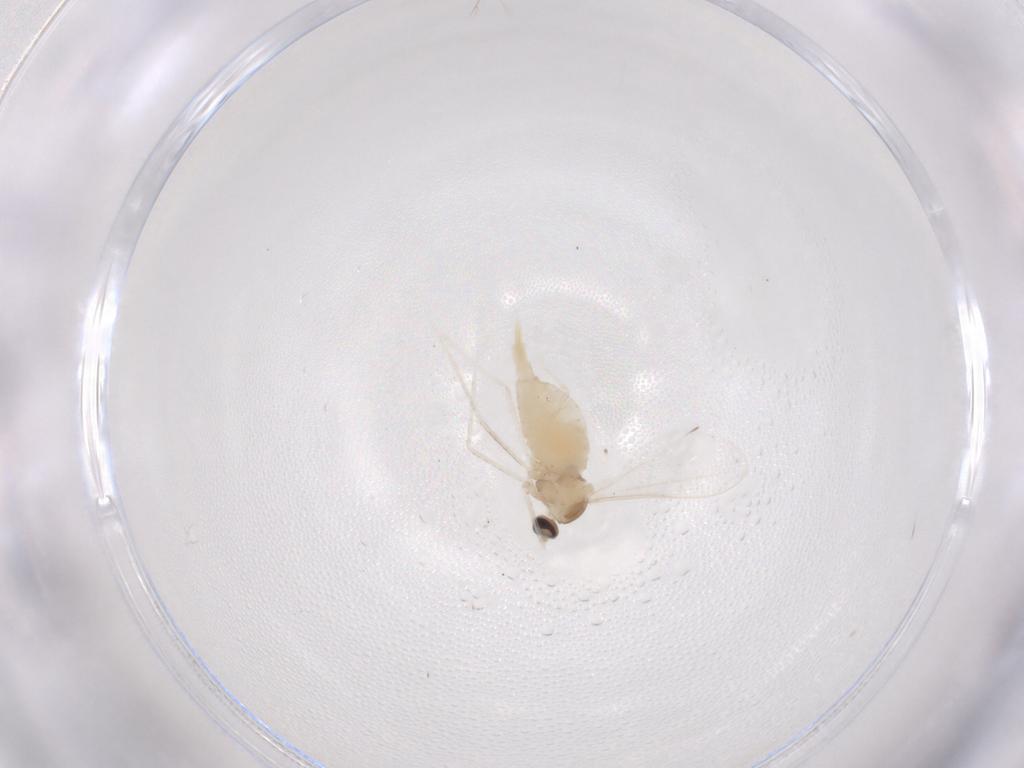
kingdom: Animalia
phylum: Arthropoda
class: Insecta
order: Diptera
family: Cecidomyiidae
